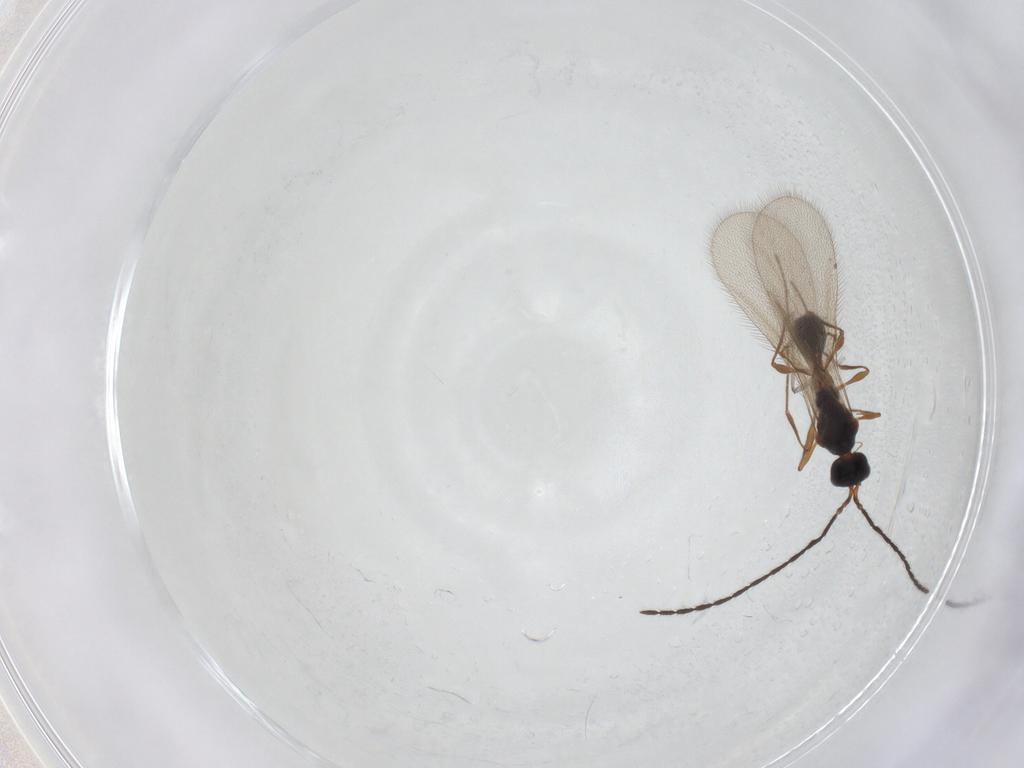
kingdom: Animalia
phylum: Arthropoda
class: Insecta
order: Hymenoptera
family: Diapriidae
